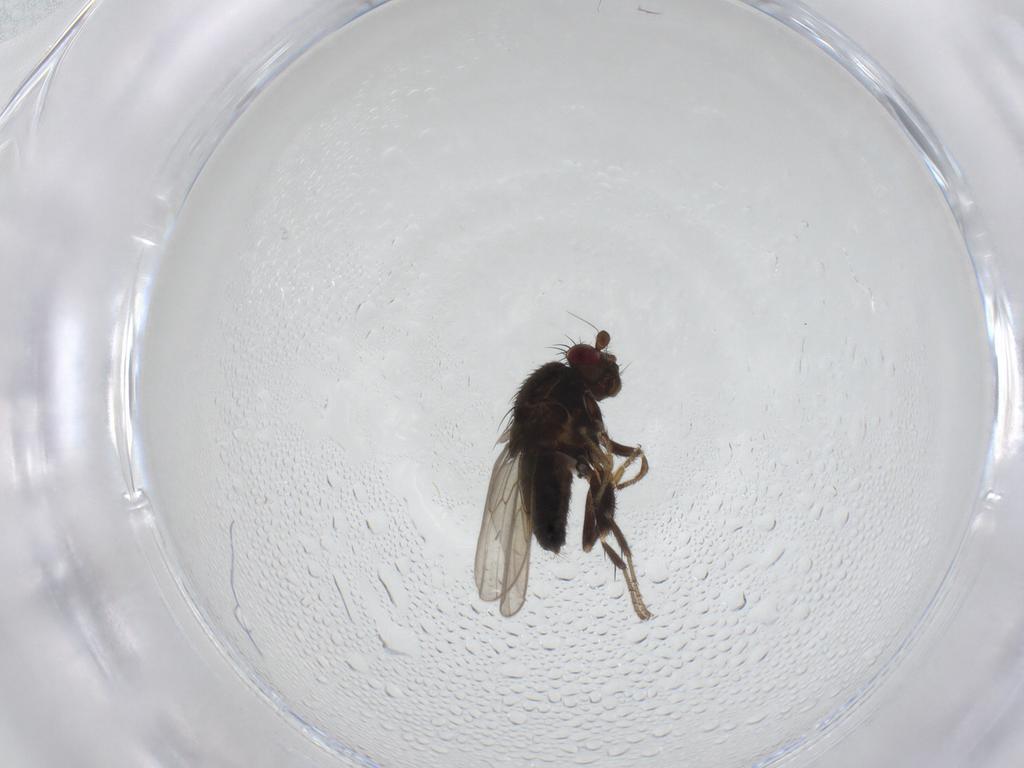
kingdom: Animalia
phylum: Arthropoda
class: Insecta
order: Diptera
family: Sphaeroceridae
